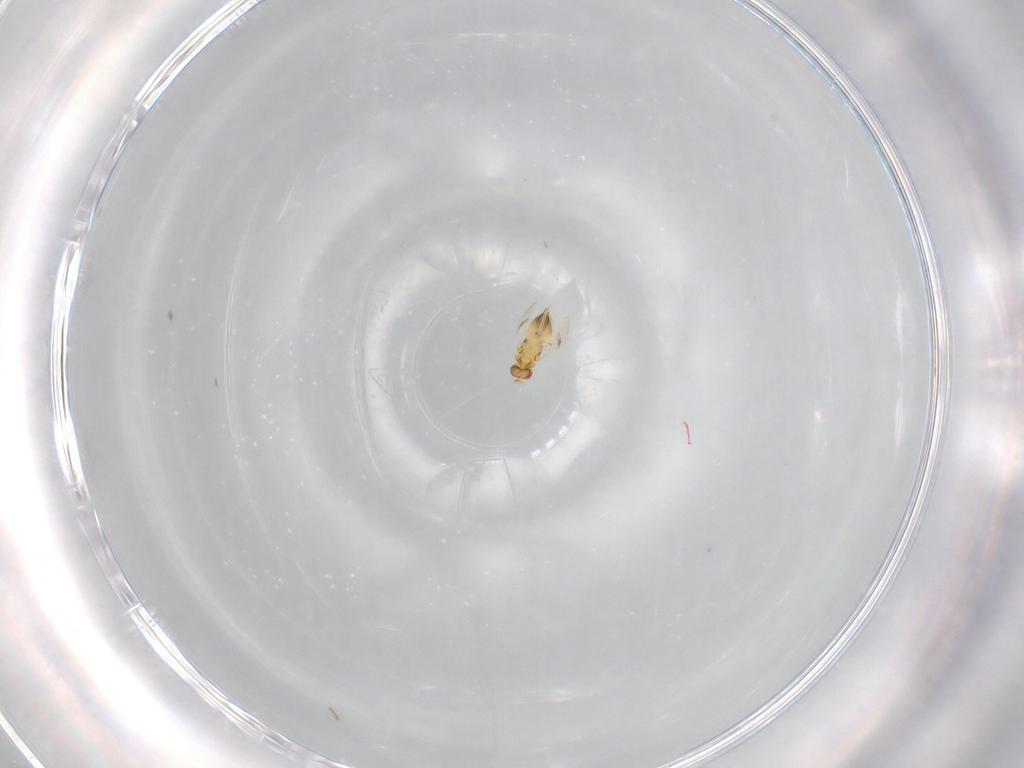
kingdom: Animalia
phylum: Arthropoda
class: Insecta
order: Hymenoptera
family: Trichogrammatidae
